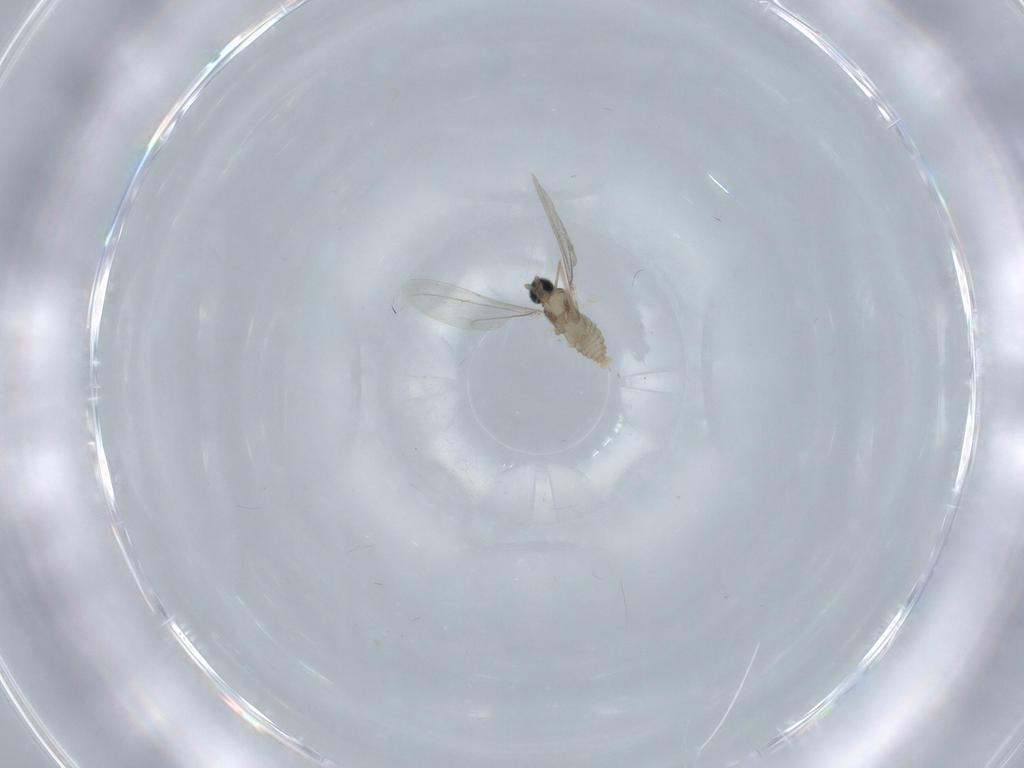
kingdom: Animalia
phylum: Arthropoda
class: Insecta
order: Diptera
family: Cecidomyiidae
